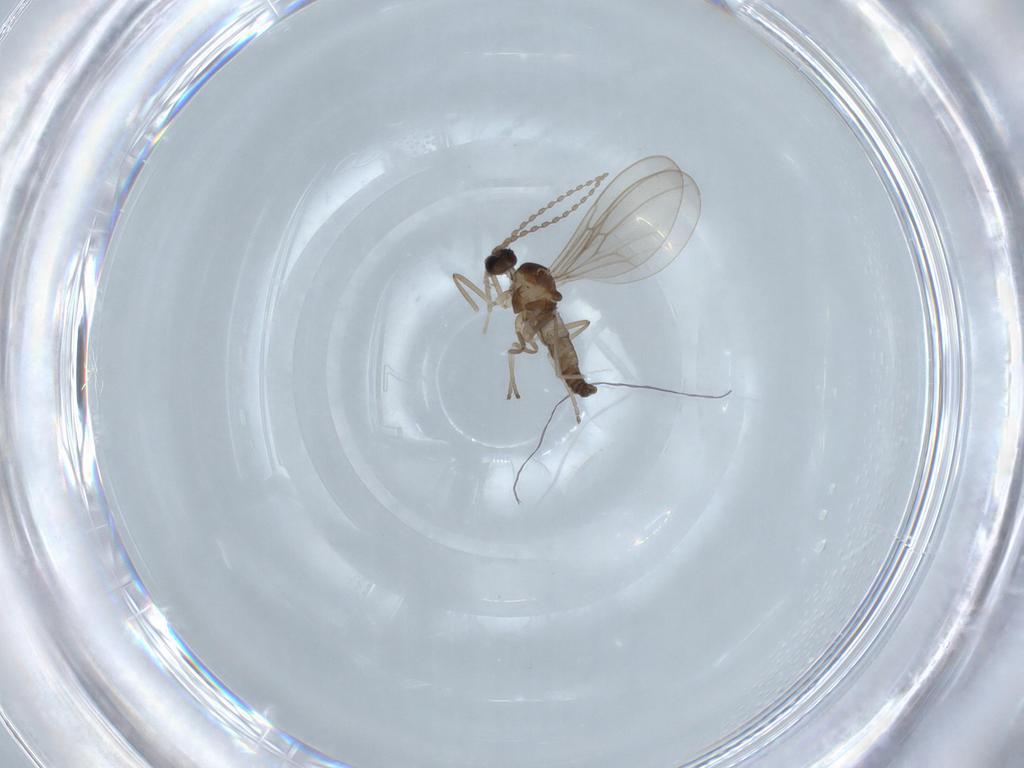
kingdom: Animalia
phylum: Arthropoda
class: Insecta
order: Diptera
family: Cecidomyiidae
